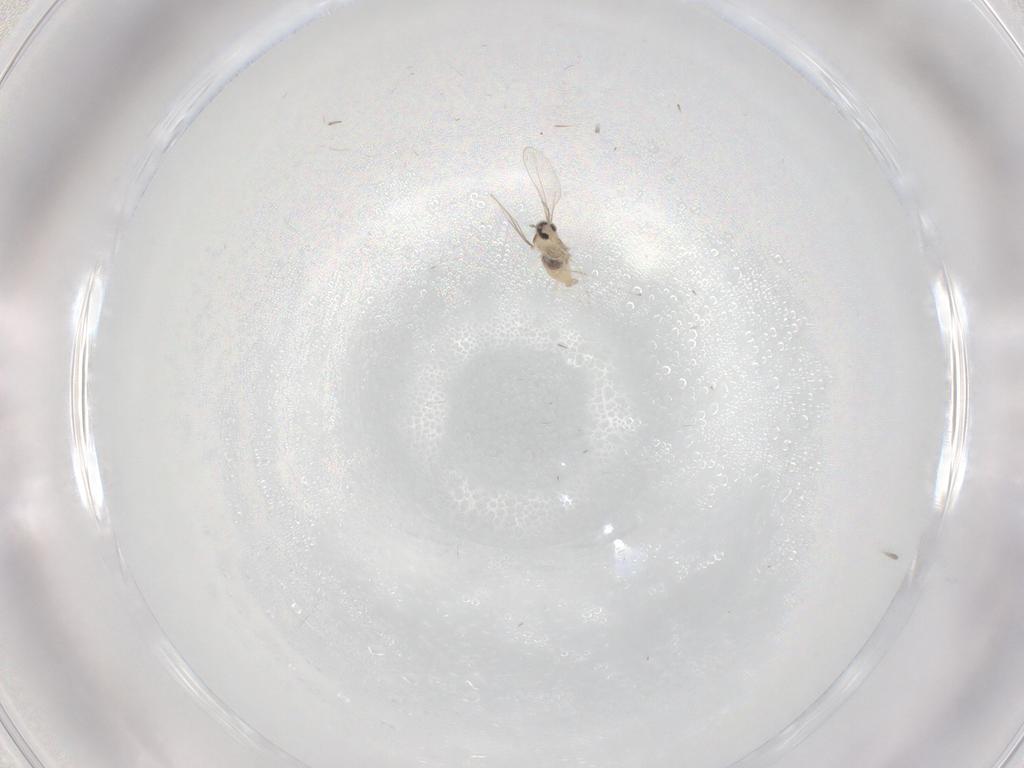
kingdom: Animalia
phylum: Arthropoda
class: Insecta
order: Diptera
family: Cecidomyiidae
